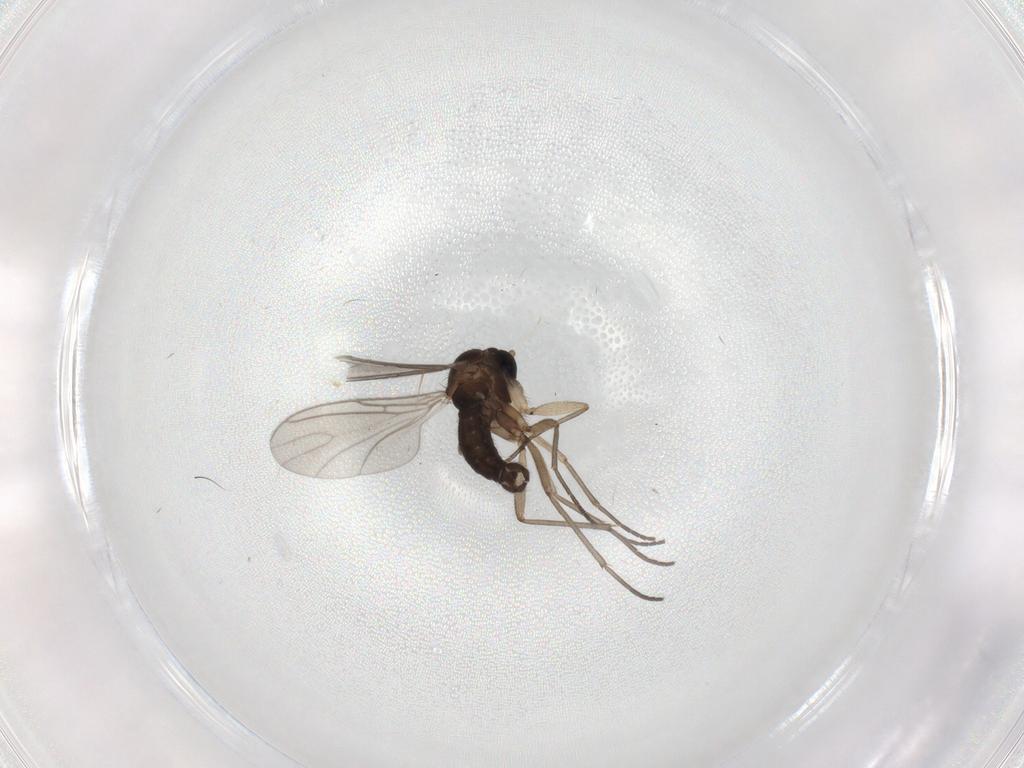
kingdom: Animalia
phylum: Arthropoda
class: Insecta
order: Diptera
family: Sciaridae
